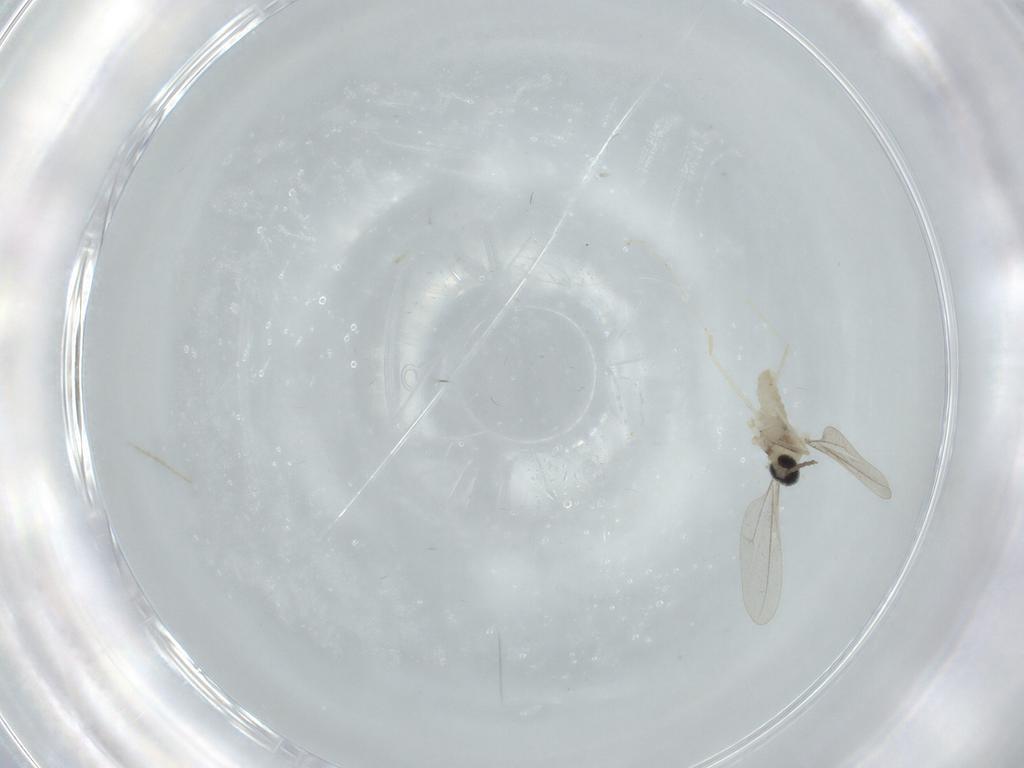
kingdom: Animalia
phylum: Arthropoda
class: Insecta
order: Diptera
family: Cecidomyiidae
